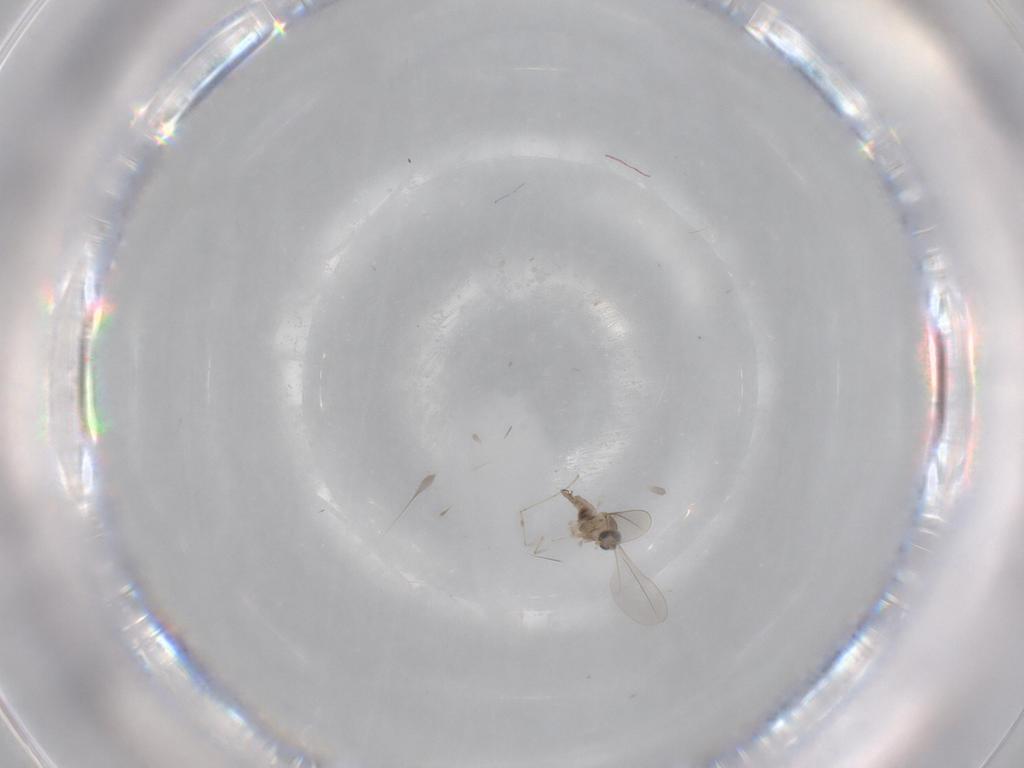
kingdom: Animalia
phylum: Arthropoda
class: Insecta
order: Diptera
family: Cecidomyiidae
